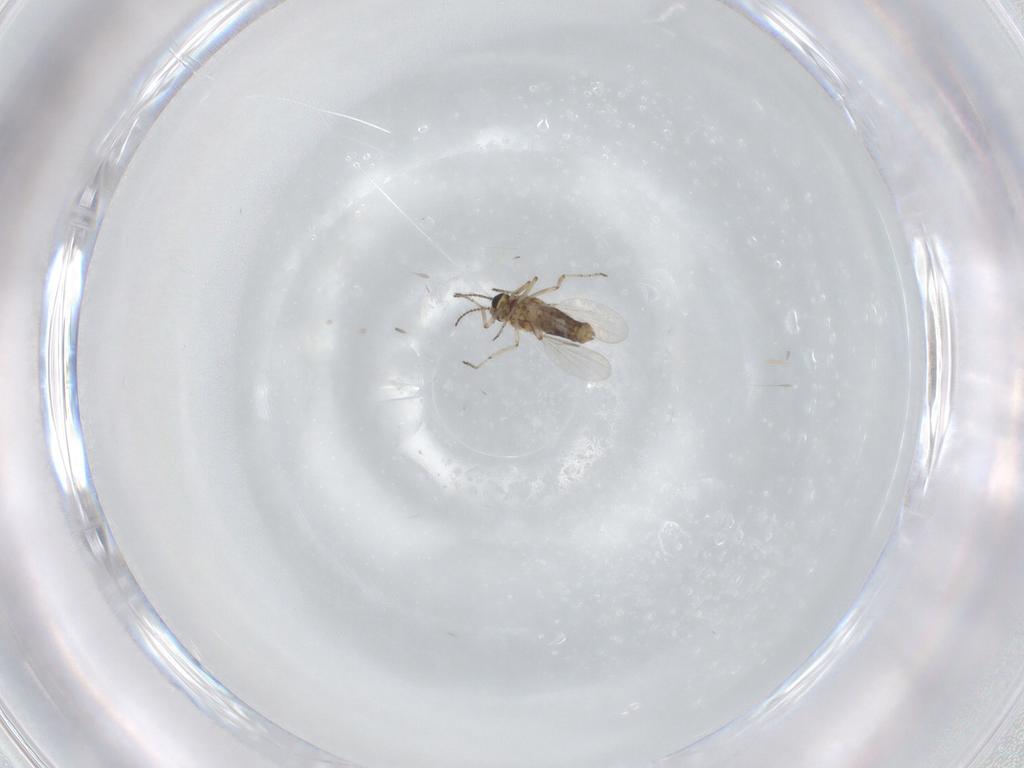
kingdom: Animalia
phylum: Arthropoda
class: Insecta
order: Diptera
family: Ceratopogonidae
